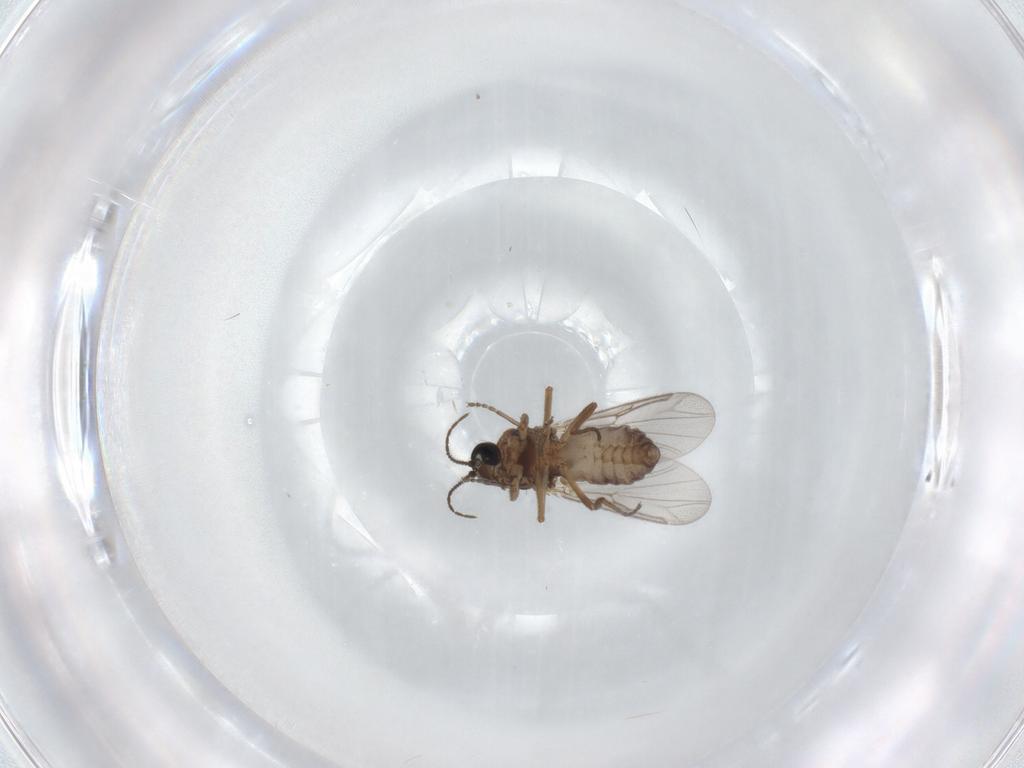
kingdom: Animalia
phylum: Arthropoda
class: Insecta
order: Diptera
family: Ceratopogonidae
